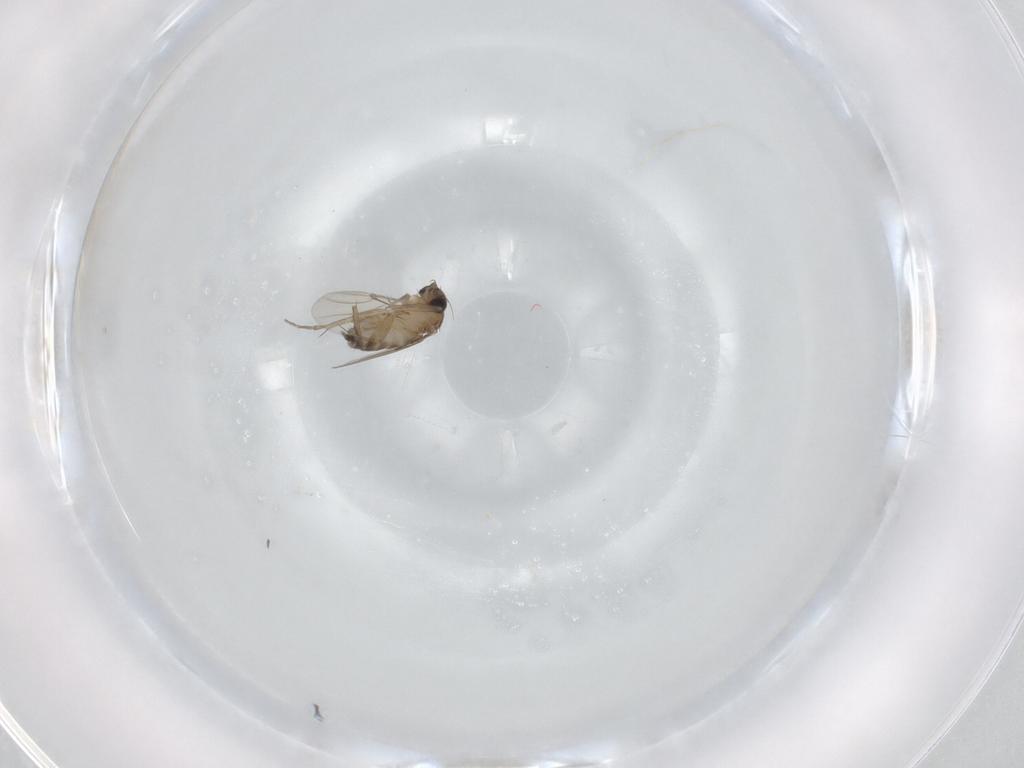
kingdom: Animalia
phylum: Arthropoda
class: Insecta
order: Diptera
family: Phoridae
